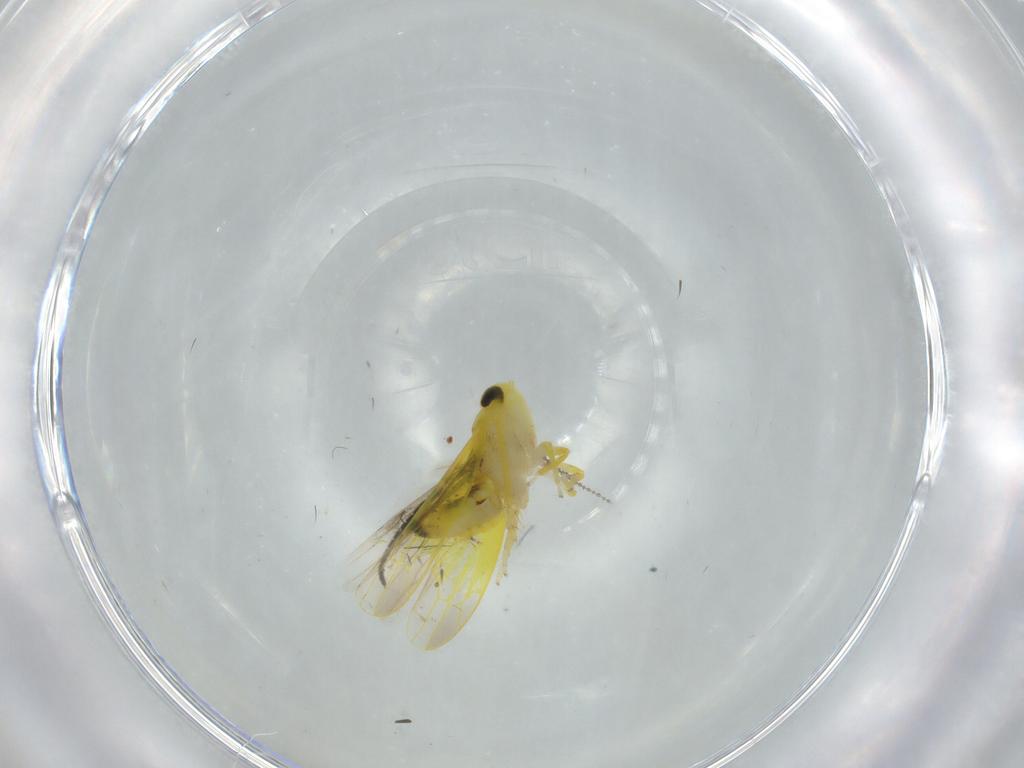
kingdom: Animalia
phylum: Arthropoda
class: Insecta
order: Hemiptera
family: Cicadellidae
